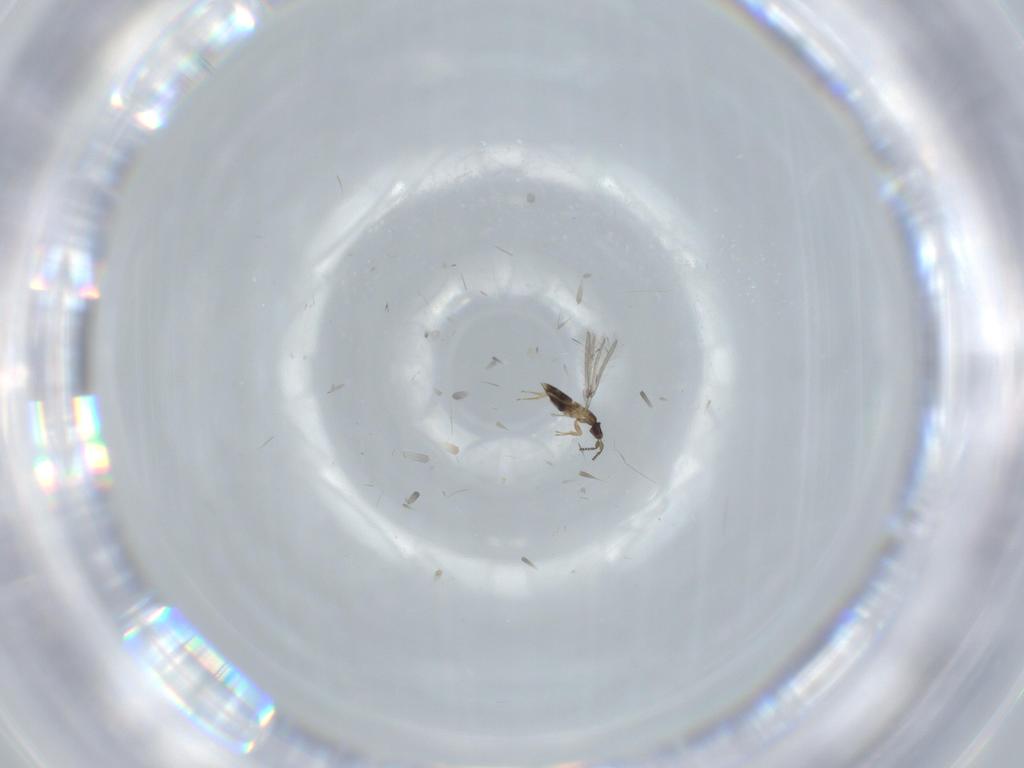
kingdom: Animalia
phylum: Arthropoda
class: Insecta
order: Hymenoptera
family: Mymaridae
